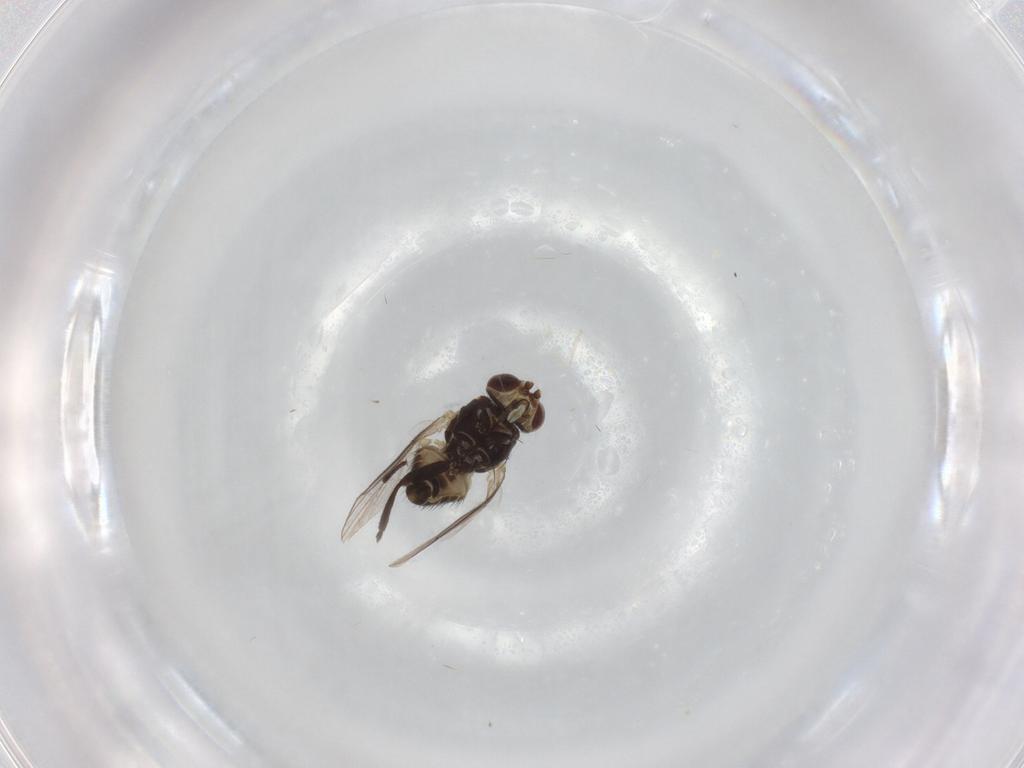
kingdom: Animalia
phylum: Arthropoda
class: Insecta
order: Diptera
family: Agromyzidae
